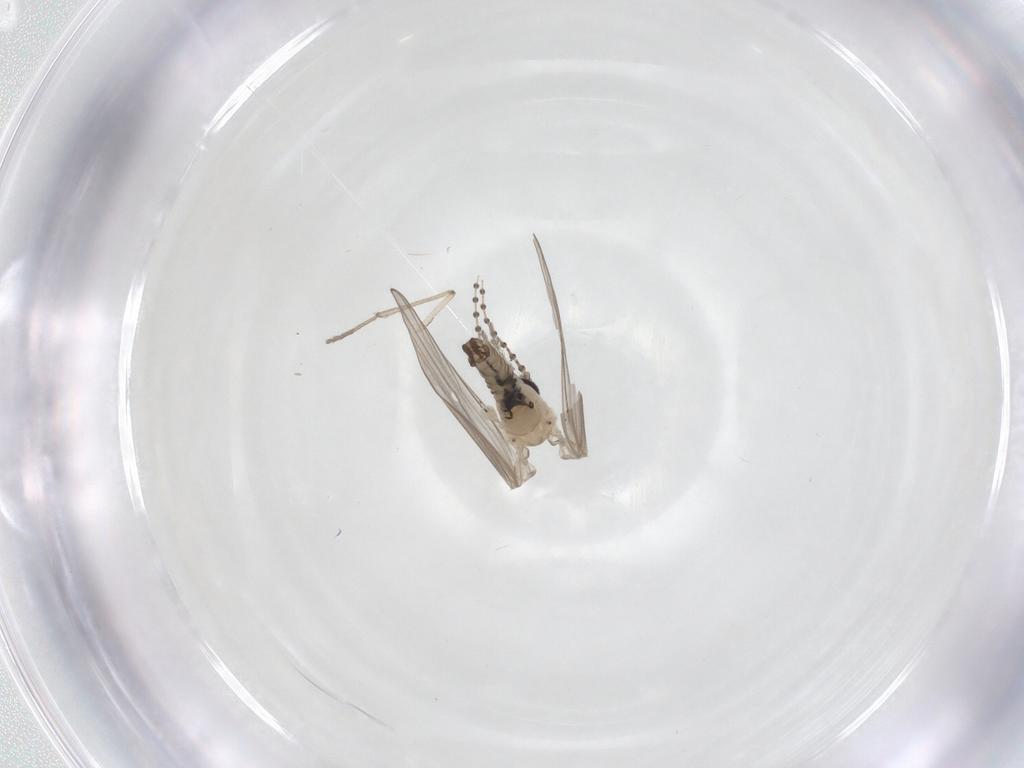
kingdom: Animalia
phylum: Arthropoda
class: Insecta
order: Diptera
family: Psychodidae
